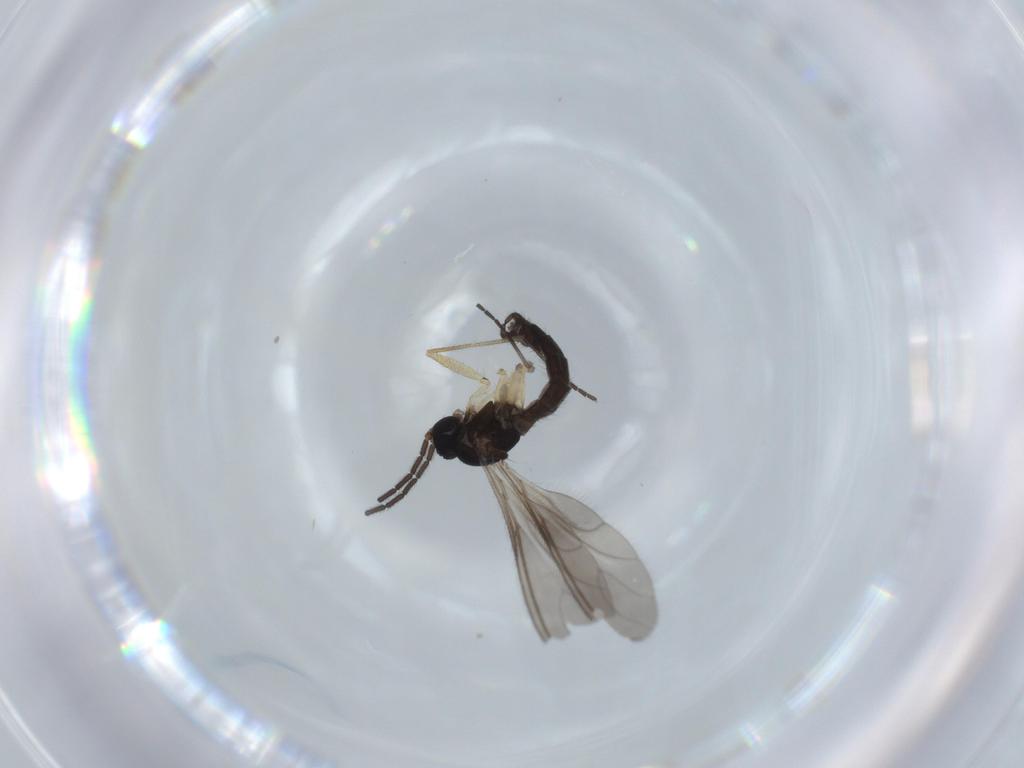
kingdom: Animalia
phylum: Arthropoda
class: Insecta
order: Diptera
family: Sciaridae
